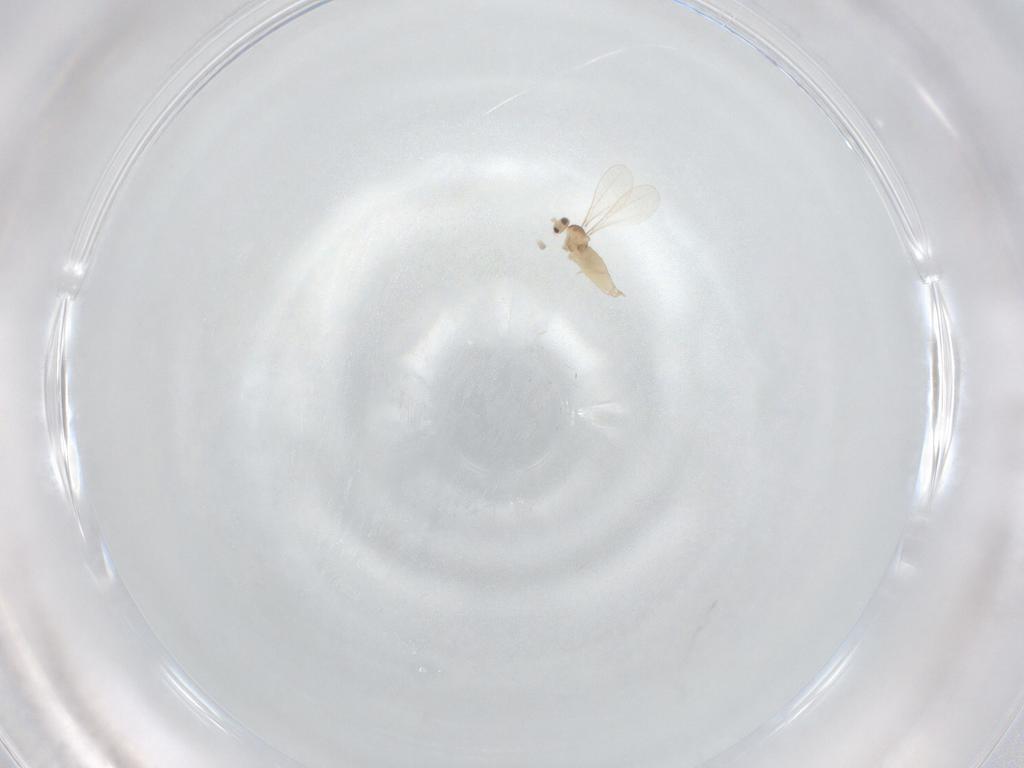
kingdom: Animalia
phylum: Arthropoda
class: Insecta
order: Diptera
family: Cecidomyiidae
